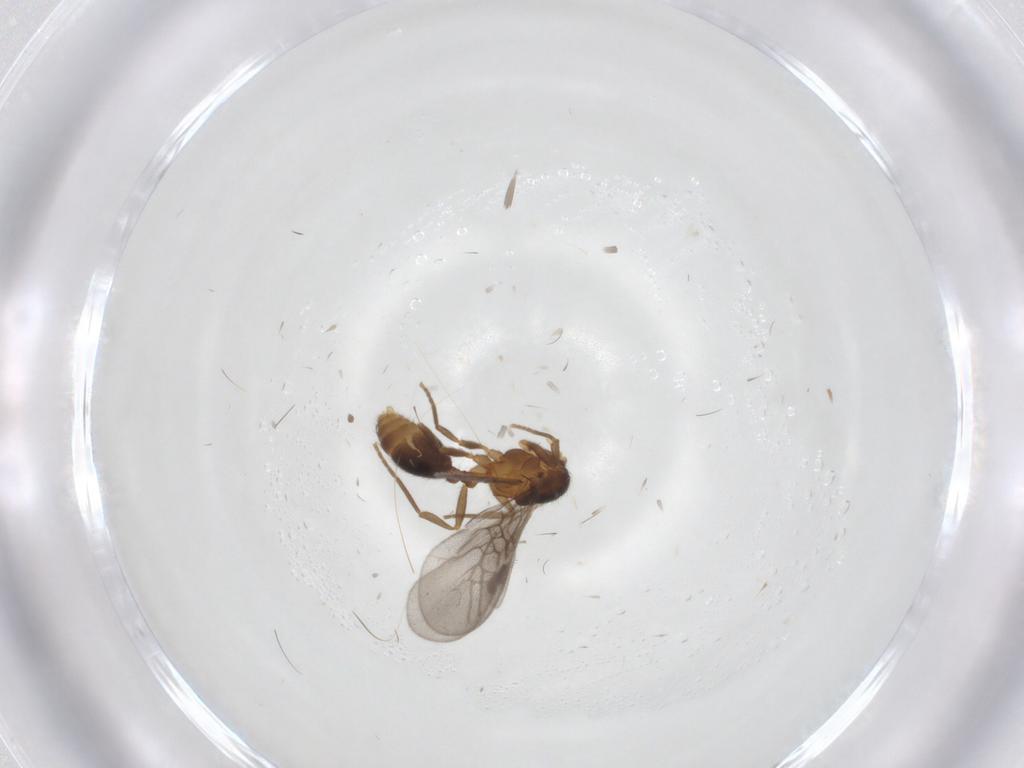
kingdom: Animalia
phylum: Arthropoda
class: Insecta
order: Hymenoptera
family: Formicidae
